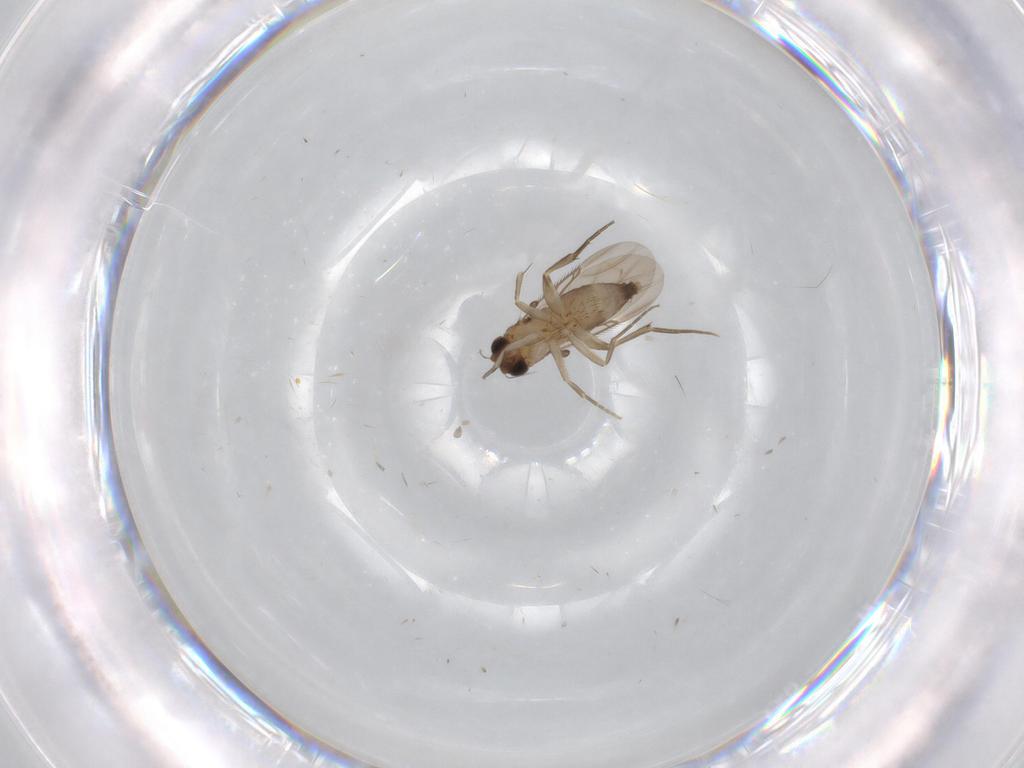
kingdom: Animalia
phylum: Arthropoda
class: Insecta
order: Diptera
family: Phoridae
